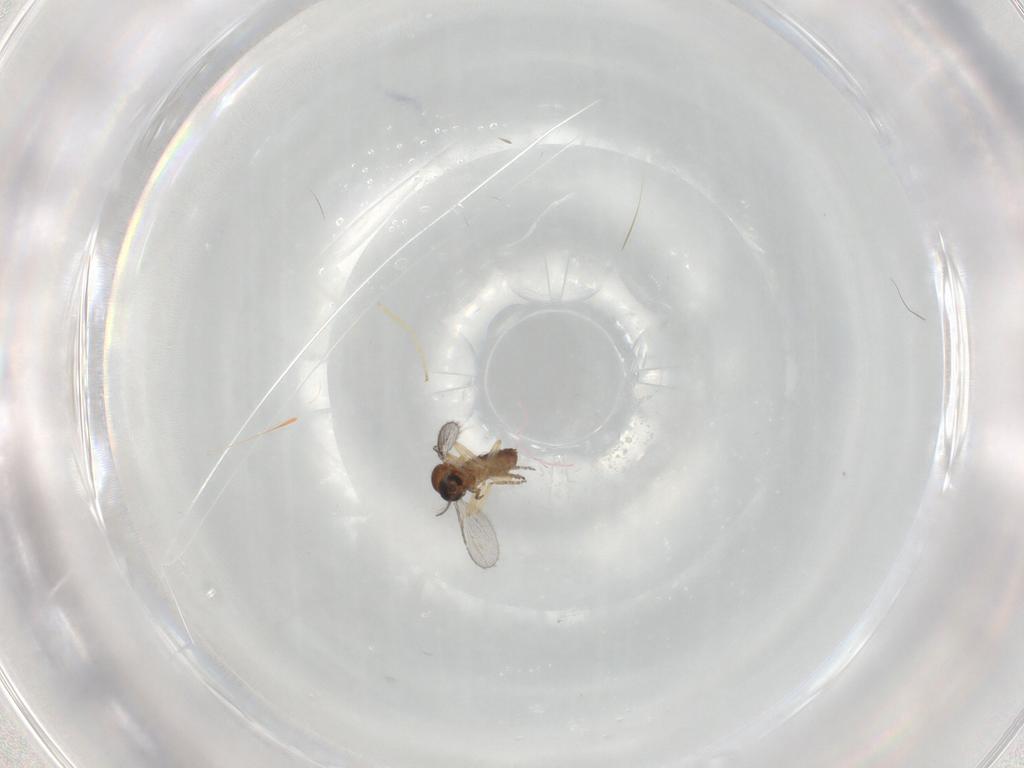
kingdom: Animalia
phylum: Arthropoda
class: Insecta
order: Diptera
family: Ceratopogonidae
